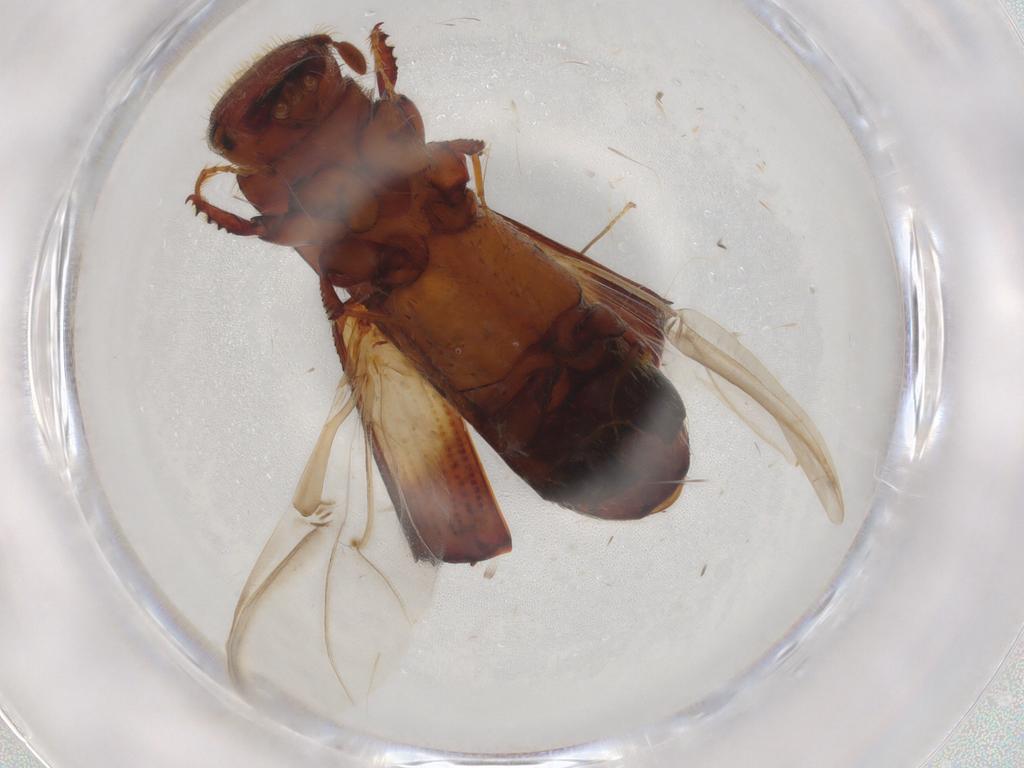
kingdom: Animalia
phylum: Arthropoda
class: Insecta
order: Coleoptera
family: Curculionidae
